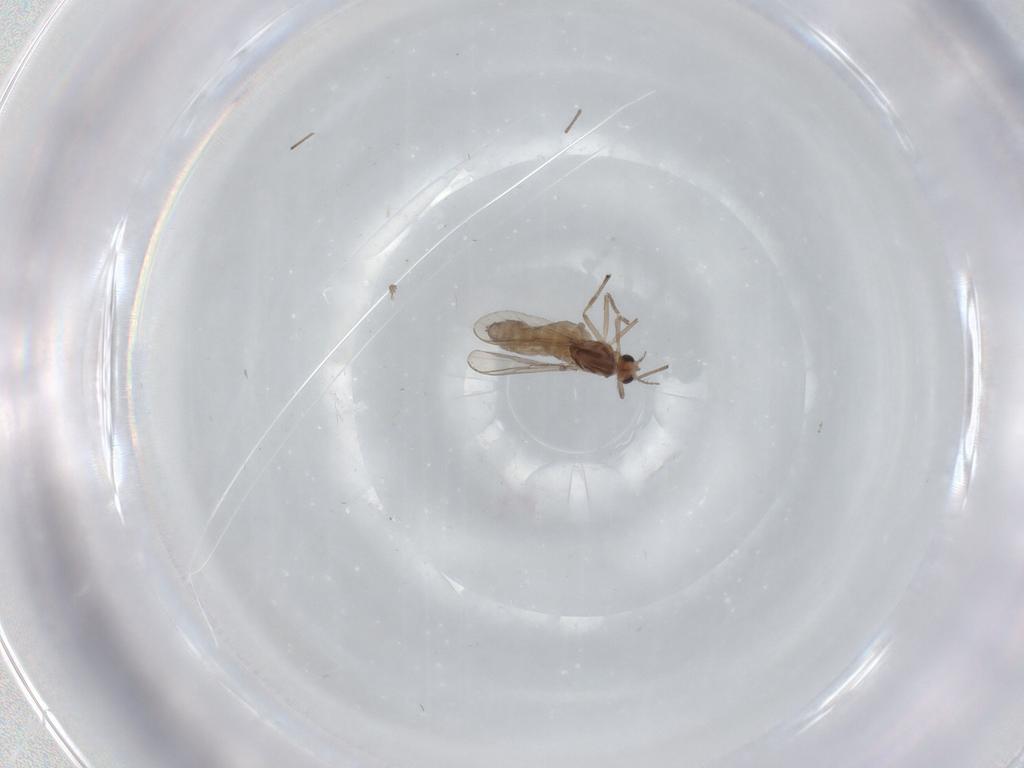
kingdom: Animalia
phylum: Arthropoda
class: Insecta
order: Diptera
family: Chironomidae
